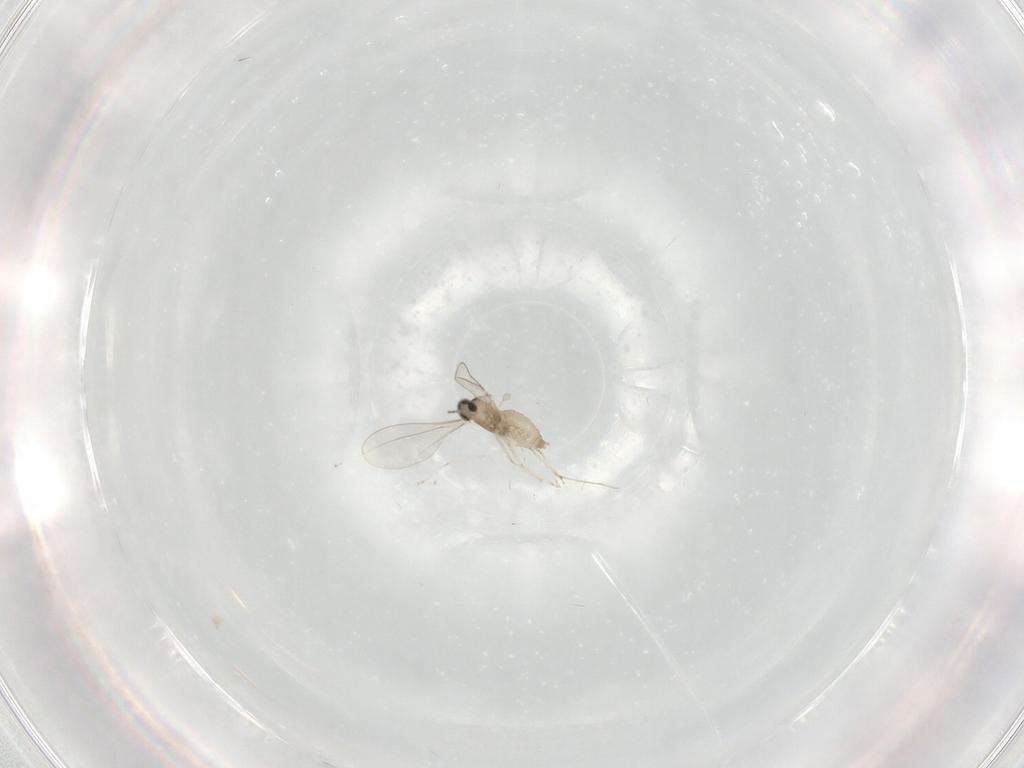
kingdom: Animalia
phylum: Arthropoda
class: Insecta
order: Diptera
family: Cecidomyiidae
